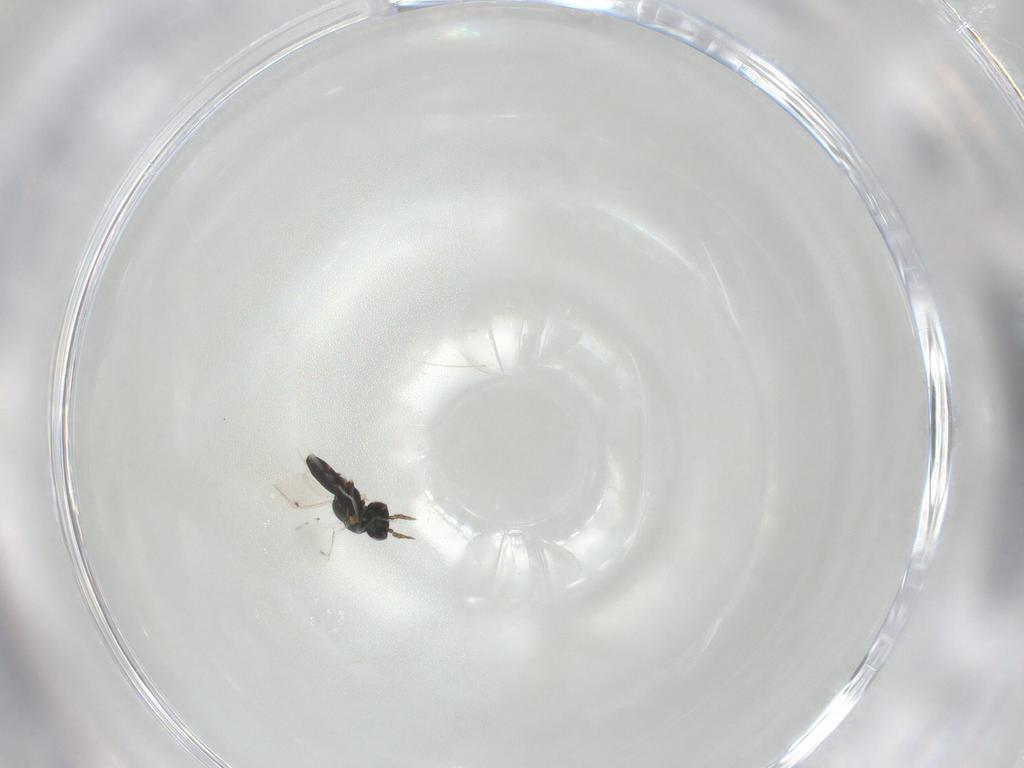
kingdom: Animalia
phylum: Arthropoda
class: Insecta
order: Hymenoptera
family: Eulophidae
